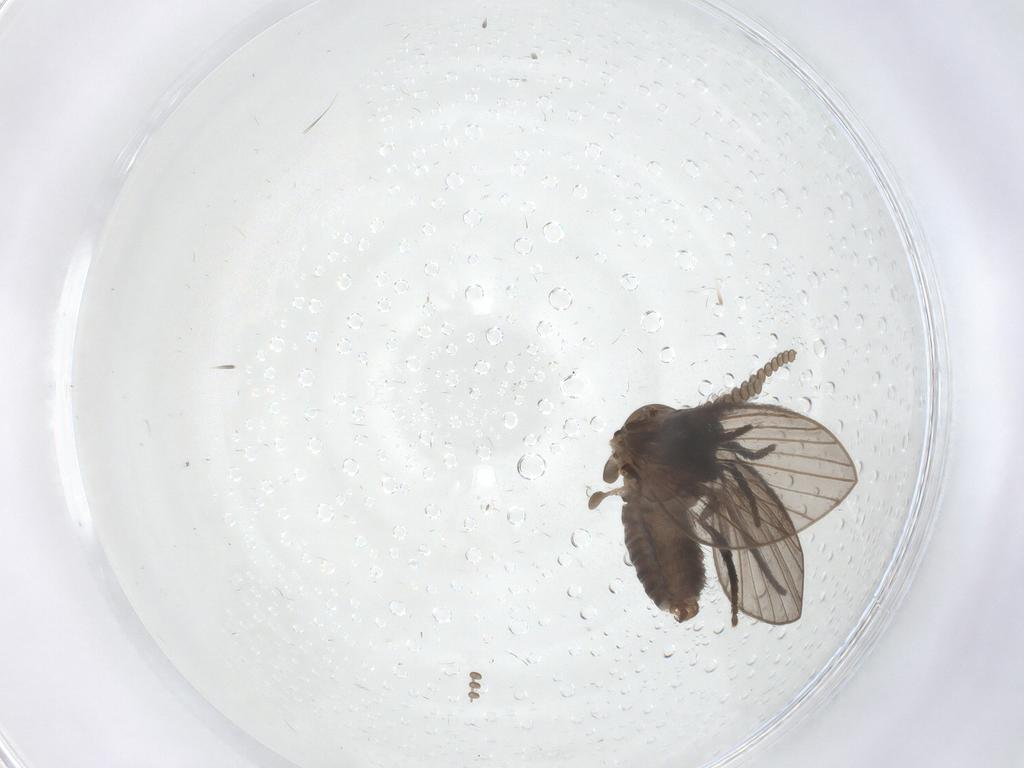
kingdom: Animalia
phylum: Arthropoda
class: Insecta
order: Diptera
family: Psychodidae
